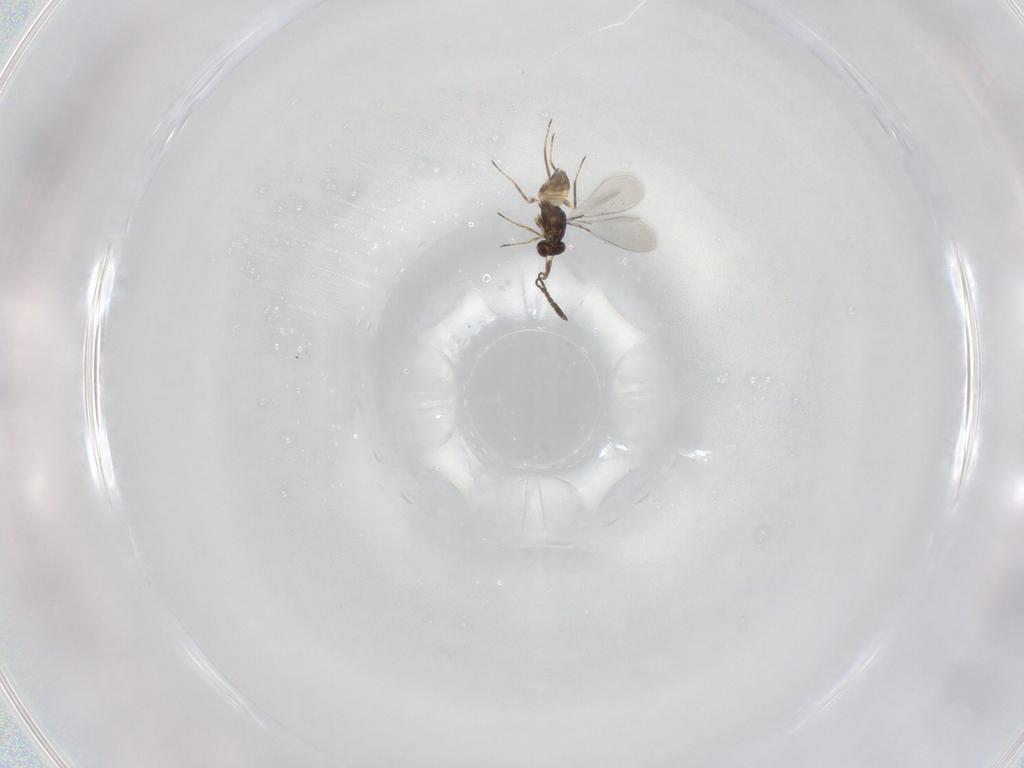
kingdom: Animalia
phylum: Arthropoda
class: Insecta
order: Hymenoptera
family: Mymaridae
